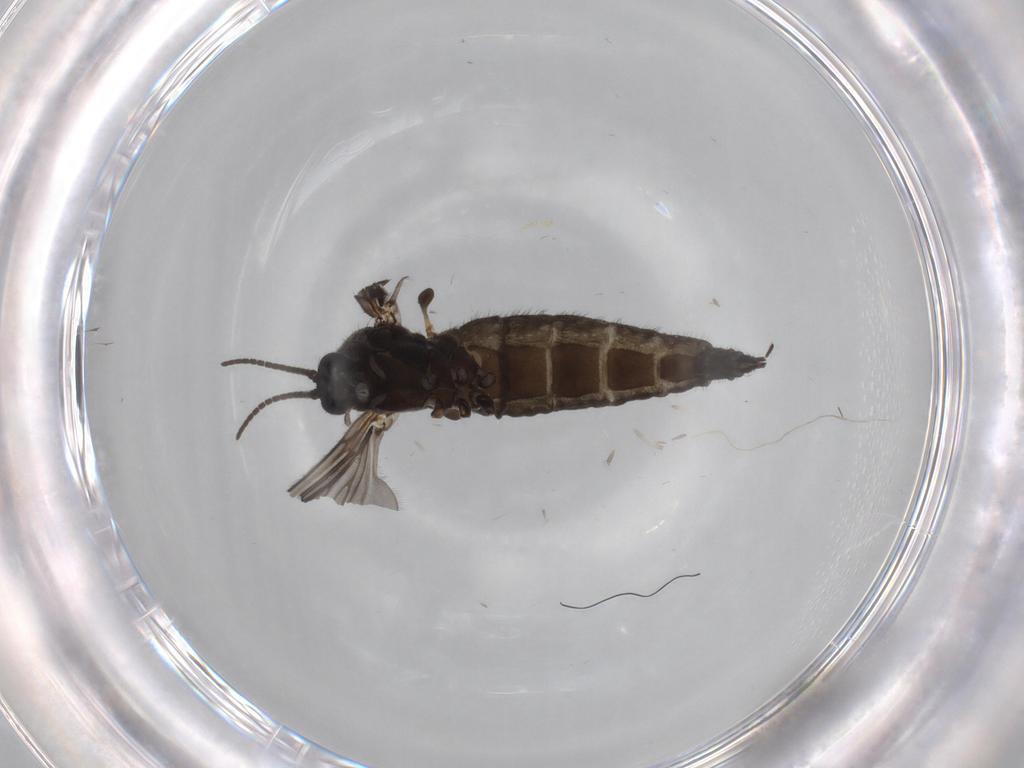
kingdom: Animalia
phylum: Arthropoda
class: Insecta
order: Diptera
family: Sciaridae
